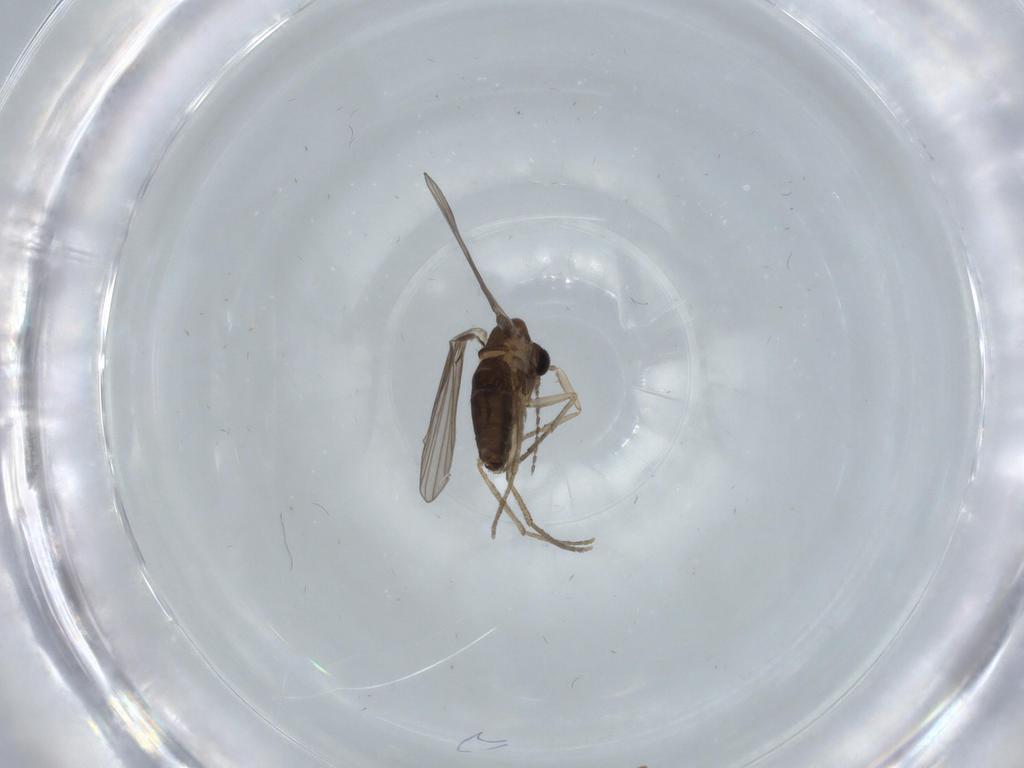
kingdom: Animalia
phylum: Arthropoda
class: Insecta
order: Diptera
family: Psychodidae
